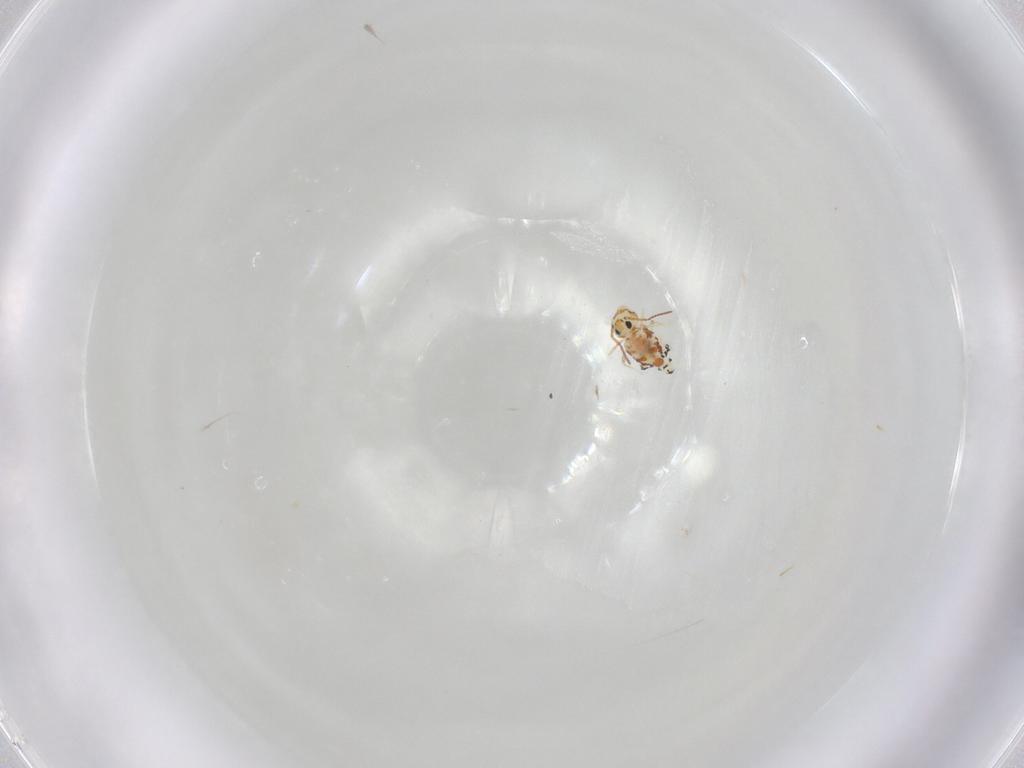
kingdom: Animalia
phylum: Arthropoda
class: Collembola
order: Symphypleona
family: Bourletiellidae
